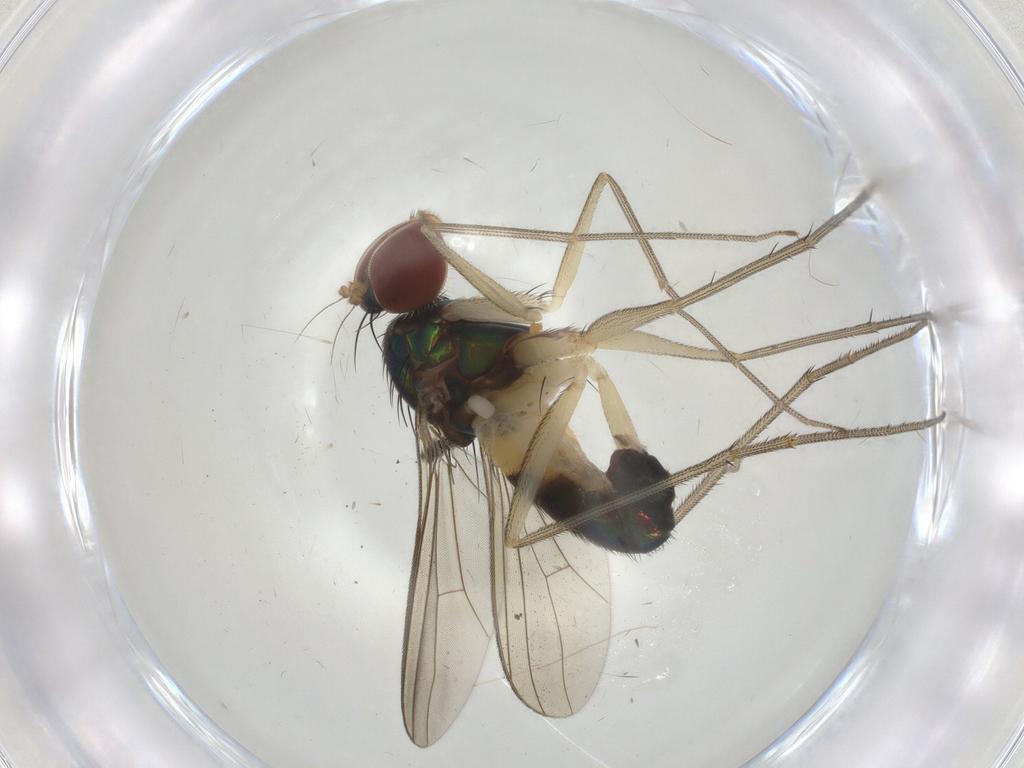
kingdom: Animalia
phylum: Arthropoda
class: Insecta
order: Diptera
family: Dolichopodidae
